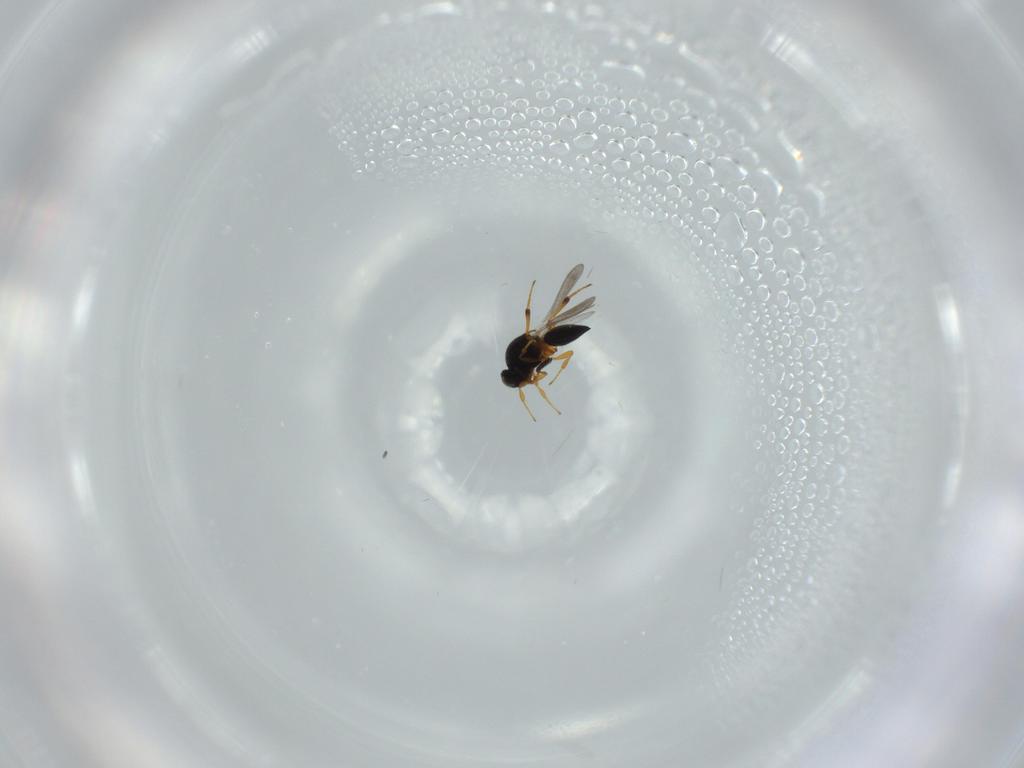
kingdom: Animalia
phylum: Arthropoda
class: Insecta
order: Hymenoptera
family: Platygastridae
